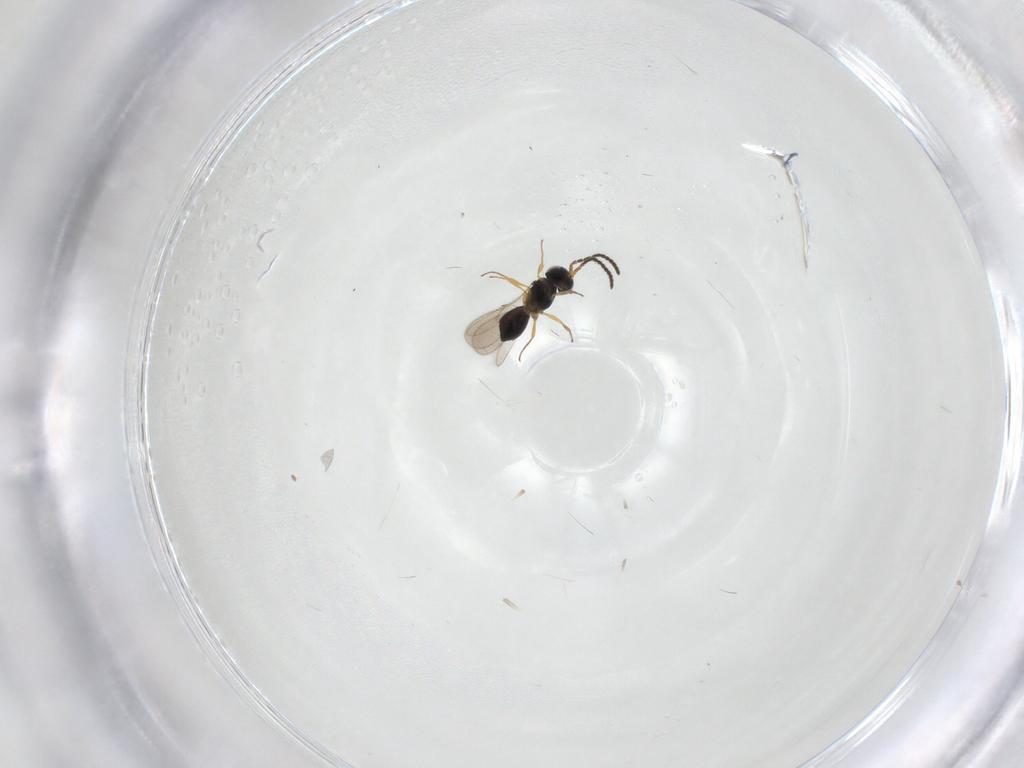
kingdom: Animalia
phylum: Arthropoda
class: Insecta
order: Hymenoptera
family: Scelionidae
